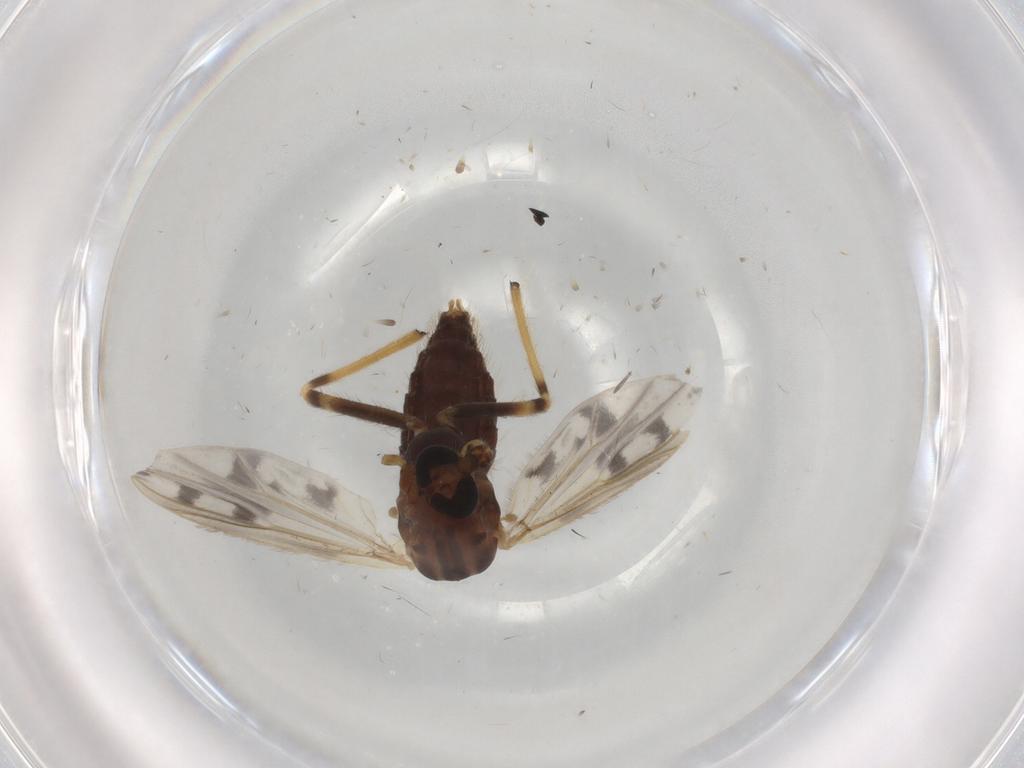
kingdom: Animalia
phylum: Arthropoda
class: Insecta
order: Diptera
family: Chironomidae
